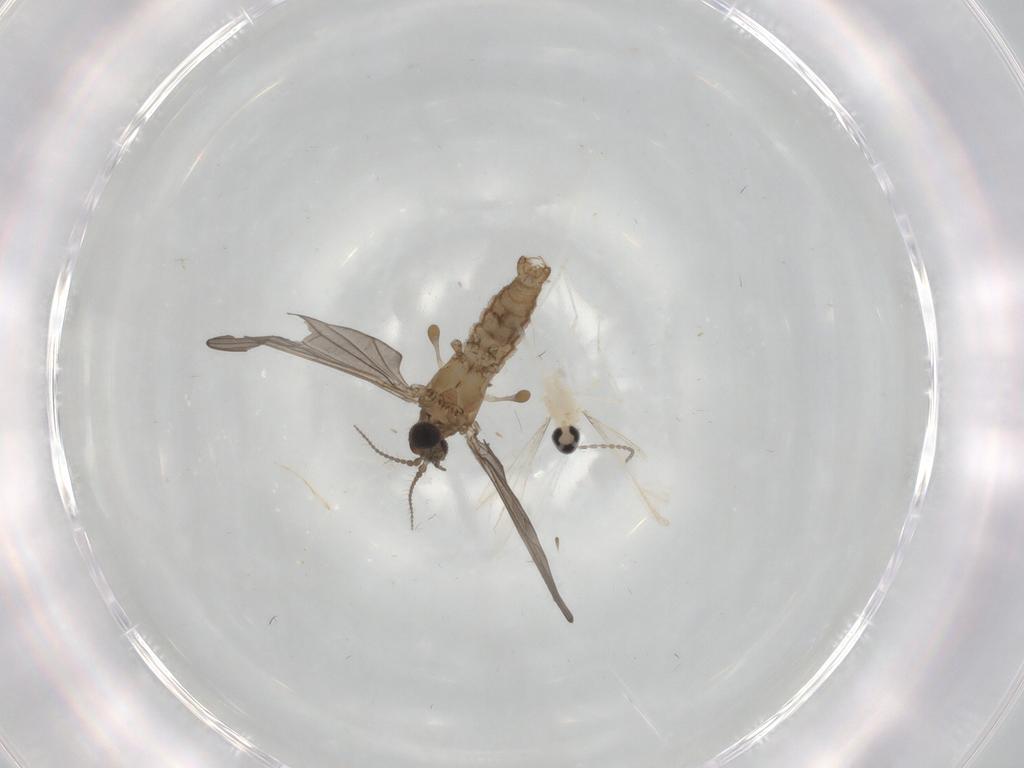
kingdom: Animalia
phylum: Arthropoda
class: Insecta
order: Diptera
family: Limoniidae
